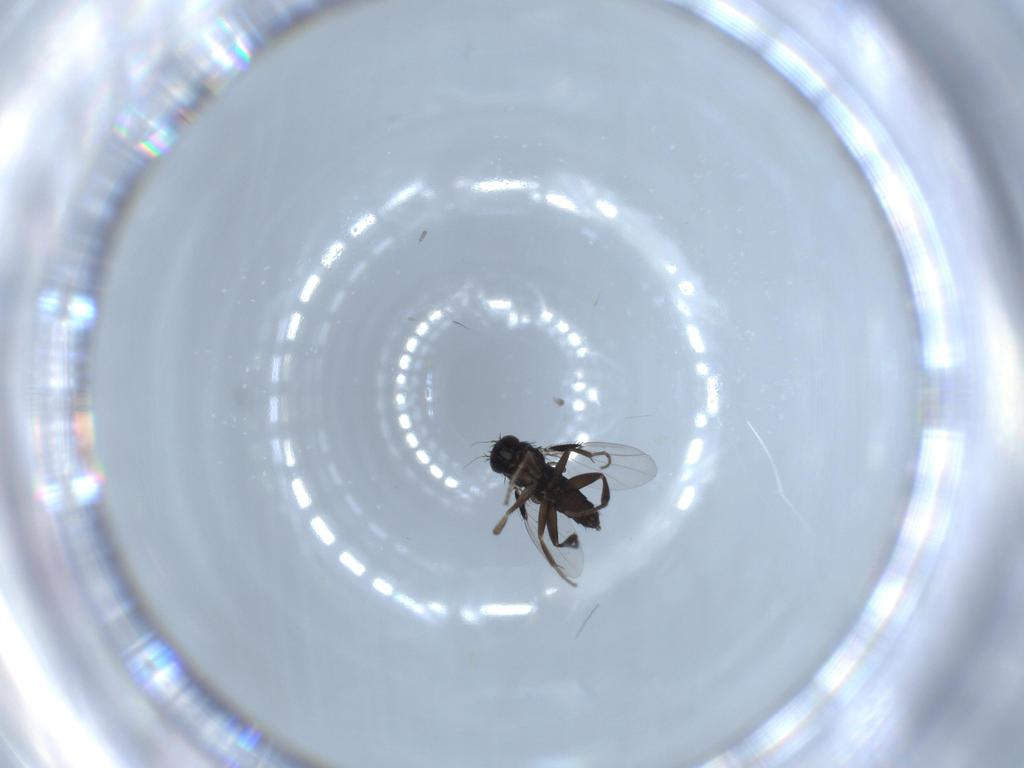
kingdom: Animalia
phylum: Arthropoda
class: Insecta
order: Diptera
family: Phoridae
